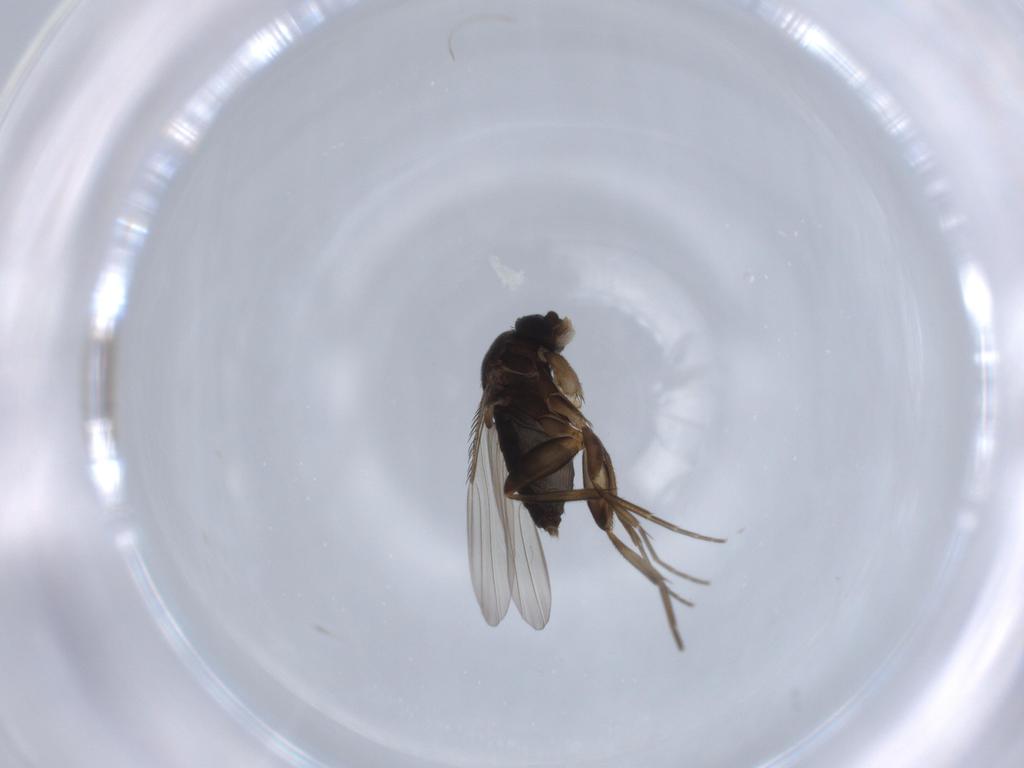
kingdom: Animalia
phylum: Arthropoda
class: Insecta
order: Diptera
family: Phoridae
